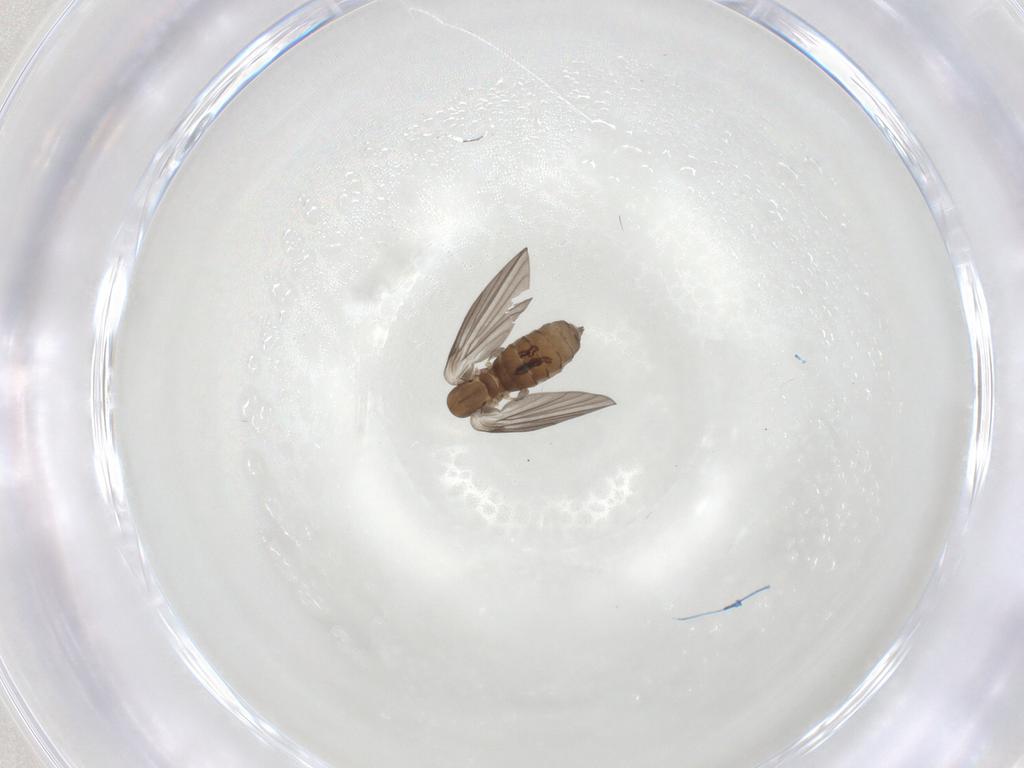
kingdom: Animalia
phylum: Arthropoda
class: Insecta
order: Diptera
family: Psychodidae
